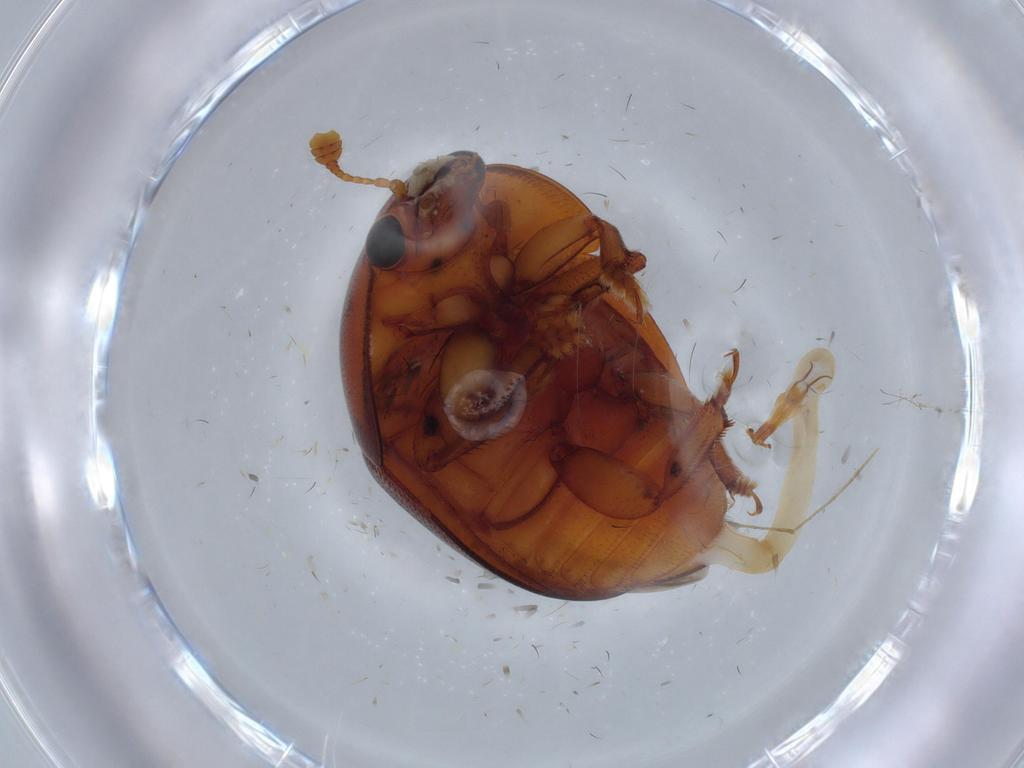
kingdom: Animalia
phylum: Arthropoda
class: Insecta
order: Coleoptera
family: Nitidulidae
